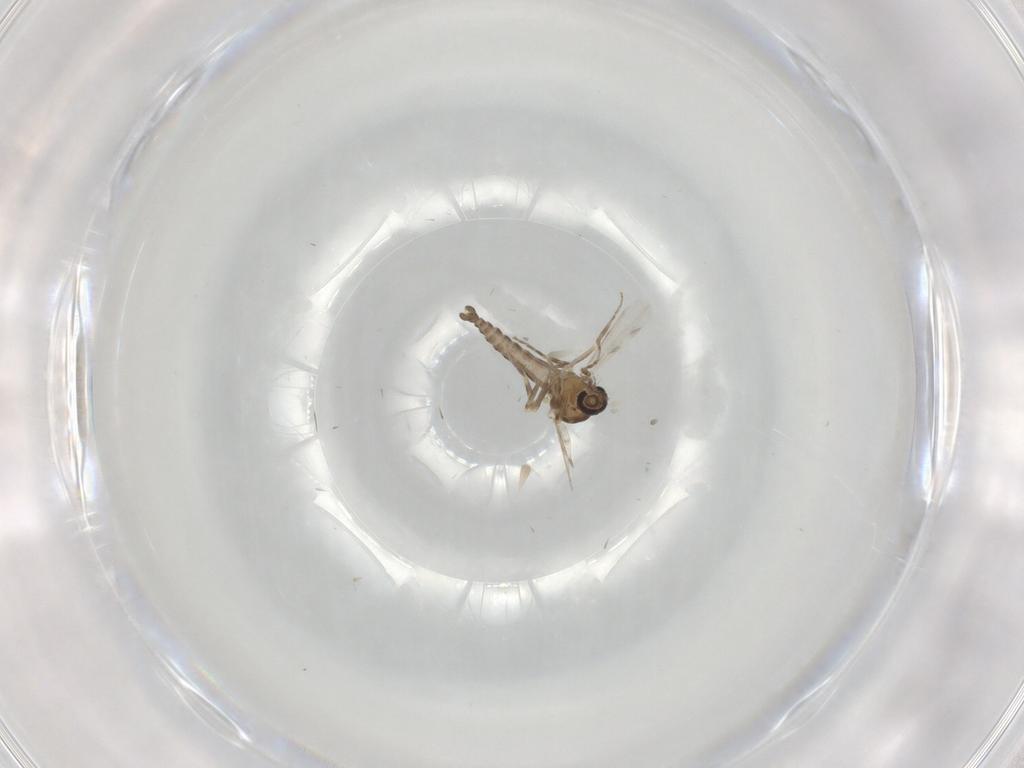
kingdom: Animalia
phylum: Arthropoda
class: Insecta
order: Diptera
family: Ceratopogonidae
